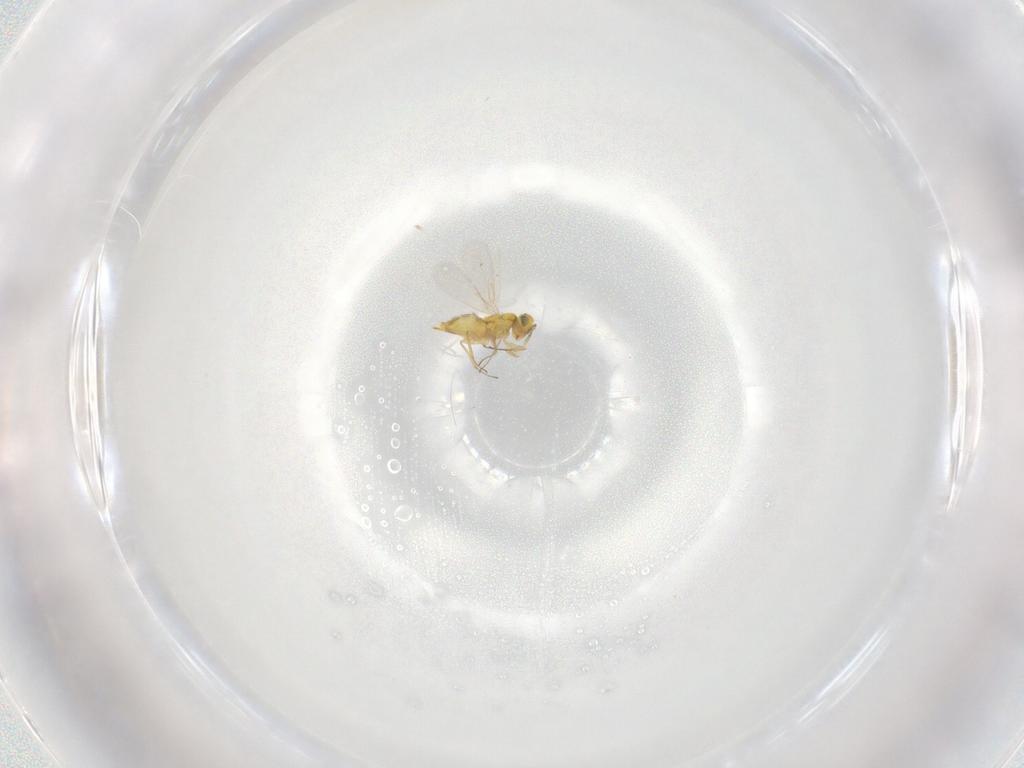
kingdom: Animalia
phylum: Arthropoda
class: Insecta
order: Hymenoptera
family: Aphelinidae
